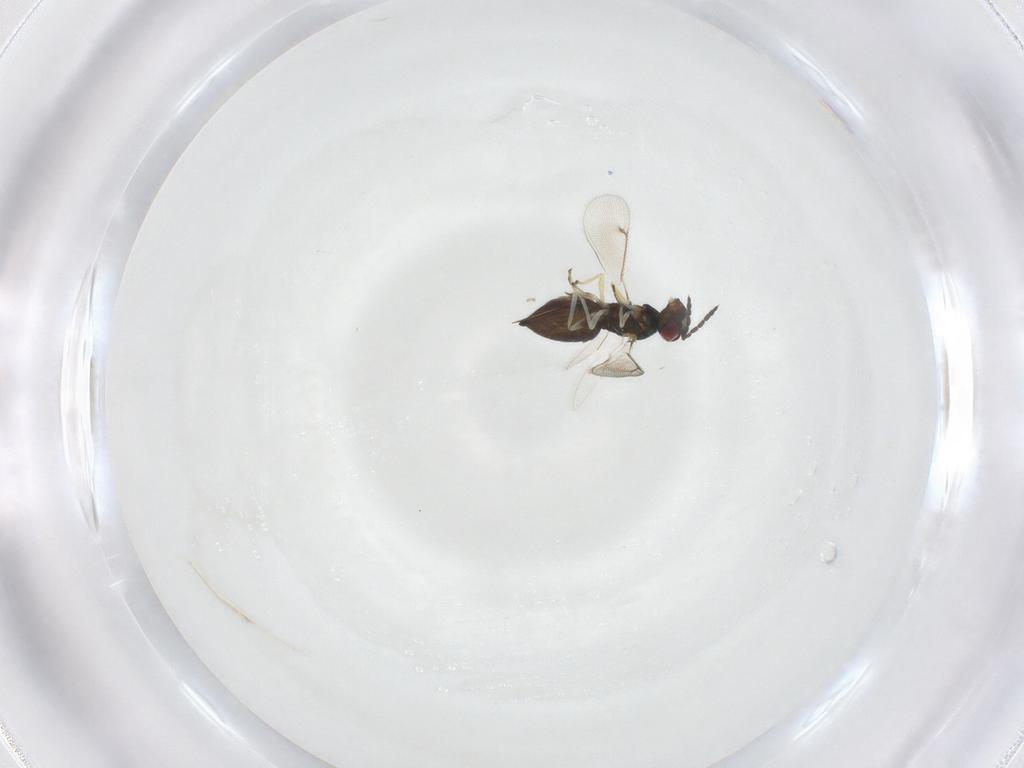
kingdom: Animalia
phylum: Arthropoda
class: Insecta
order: Hymenoptera
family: Eulophidae
